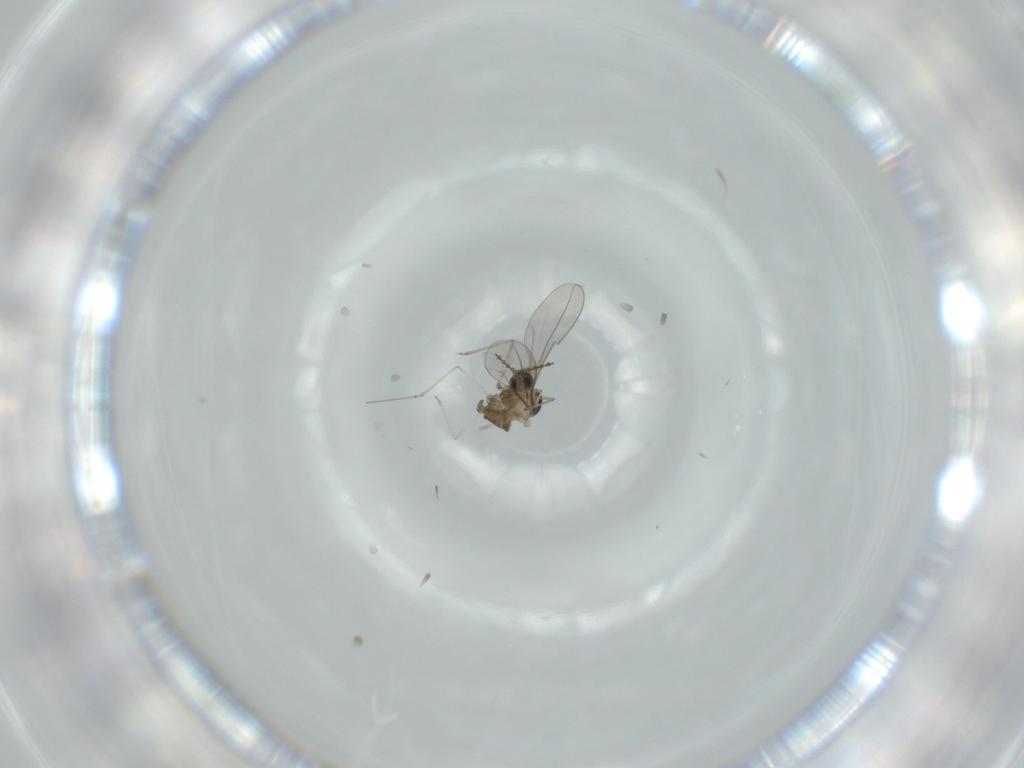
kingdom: Animalia
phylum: Arthropoda
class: Insecta
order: Diptera
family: Cecidomyiidae
